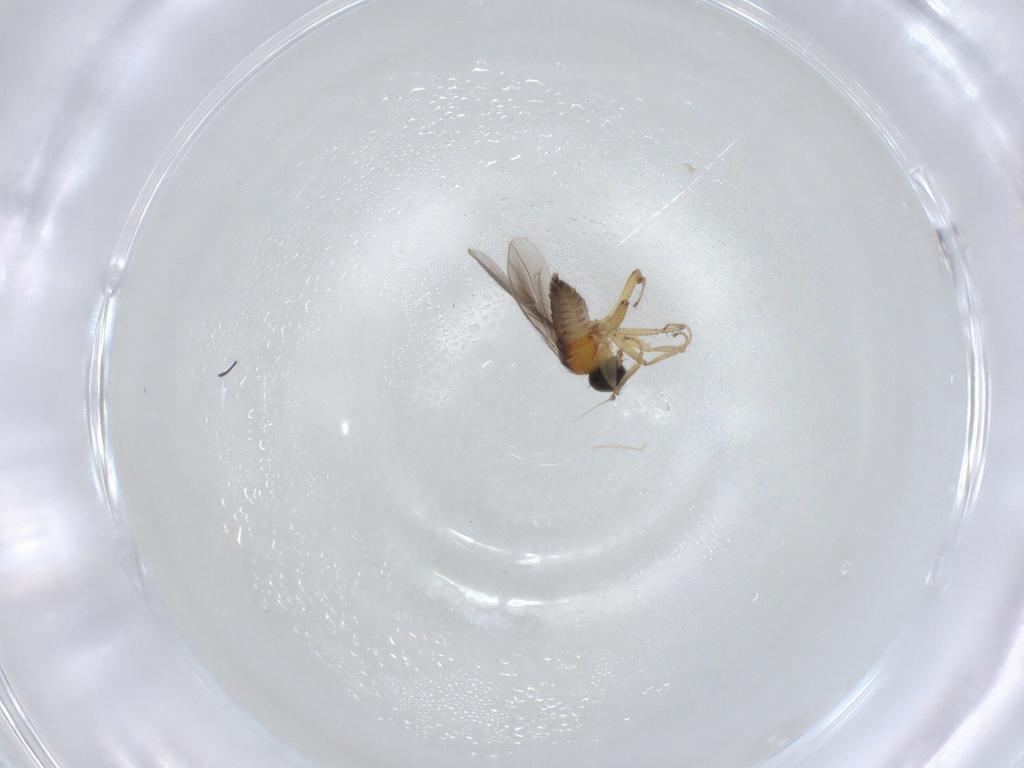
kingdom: Animalia
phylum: Arthropoda
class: Insecta
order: Diptera
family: Hybotidae
